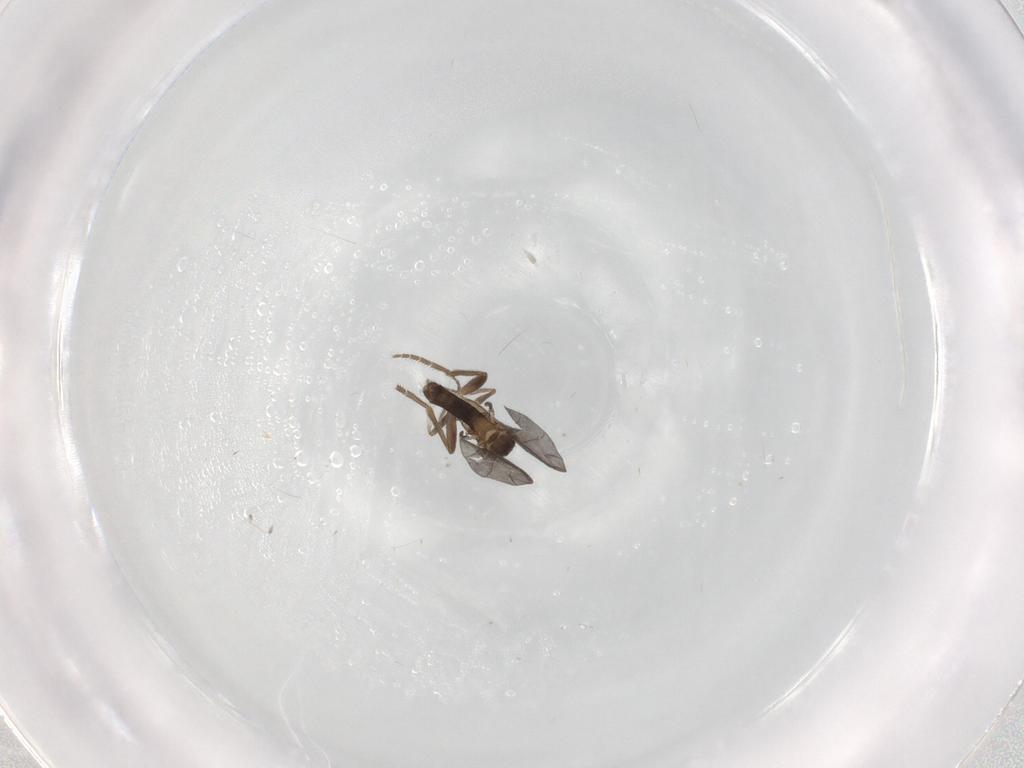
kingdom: Animalia
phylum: Arthropoda
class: Insecta
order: Diptera
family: Phoridae
